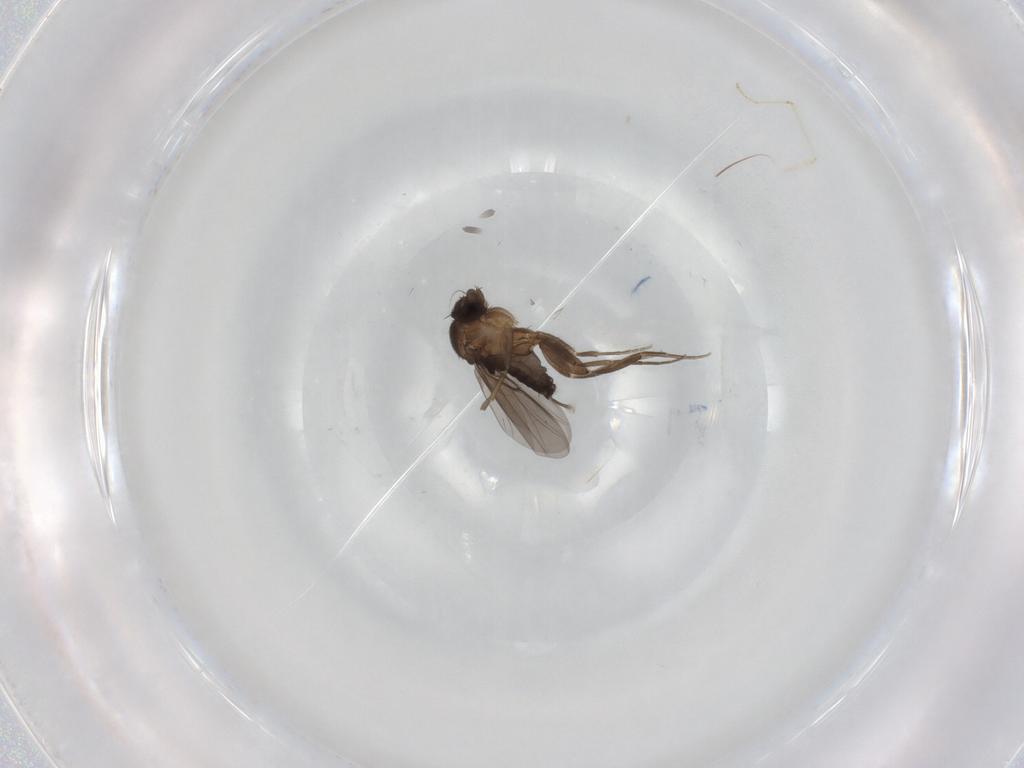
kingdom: Animalia
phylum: Arthropoda
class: Insecta
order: Diptera
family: Phoridae
